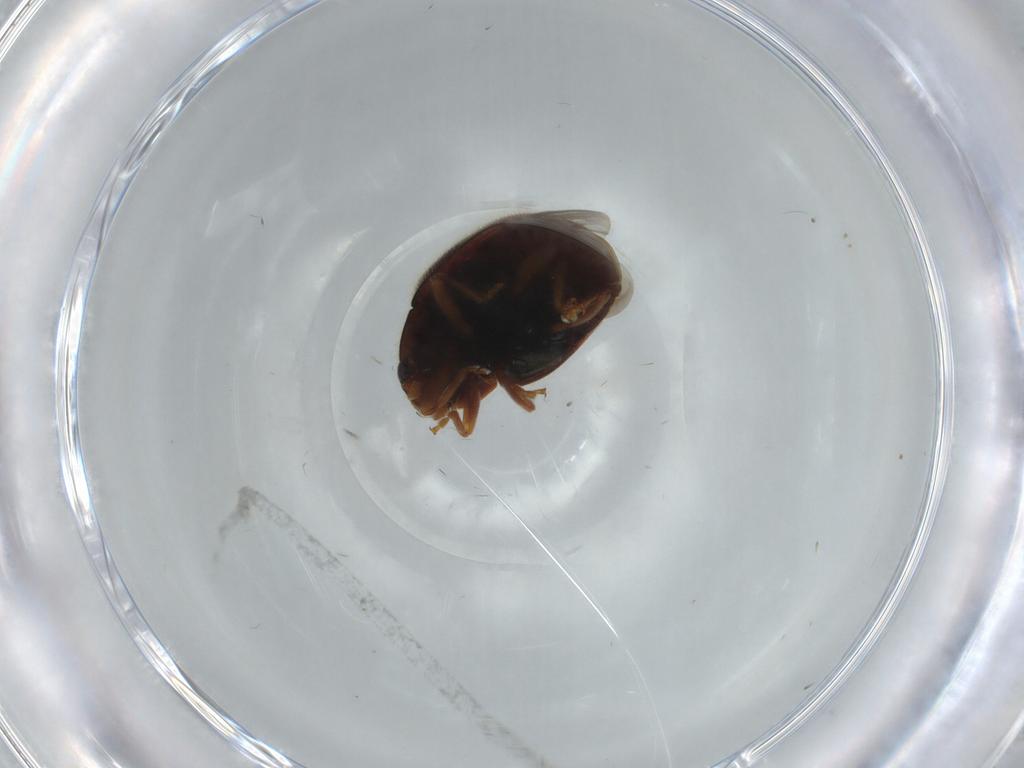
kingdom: Animalia
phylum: Arthropoda
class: Insecta
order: Coleoptera
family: Coccinellidae
